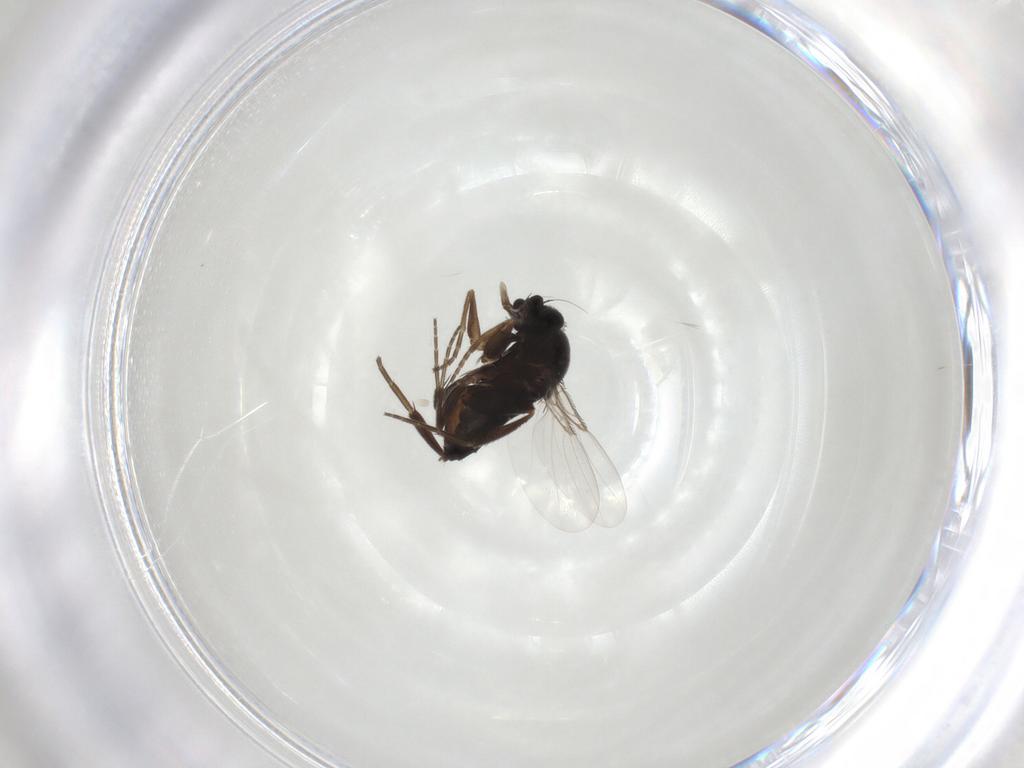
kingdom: Animalia
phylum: Arthropoda
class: Insecta
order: Diptera
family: Phoridae
